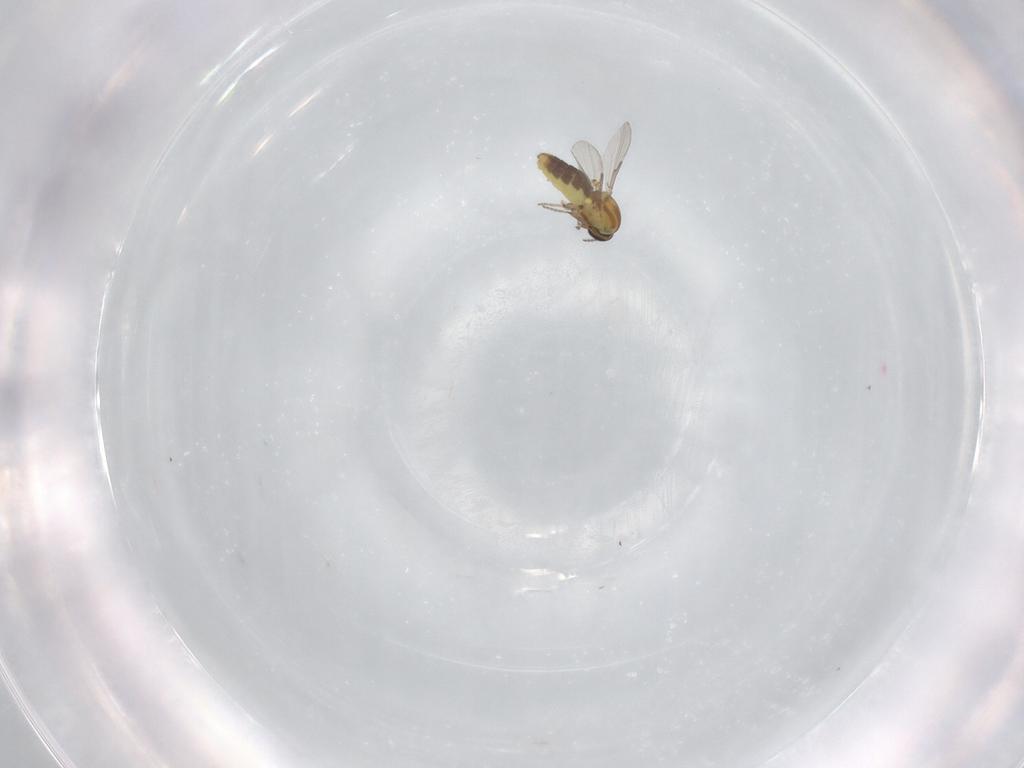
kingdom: Animalia
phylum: Arthropoda
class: Insecta
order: Diptera
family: Ceratopogonidae
